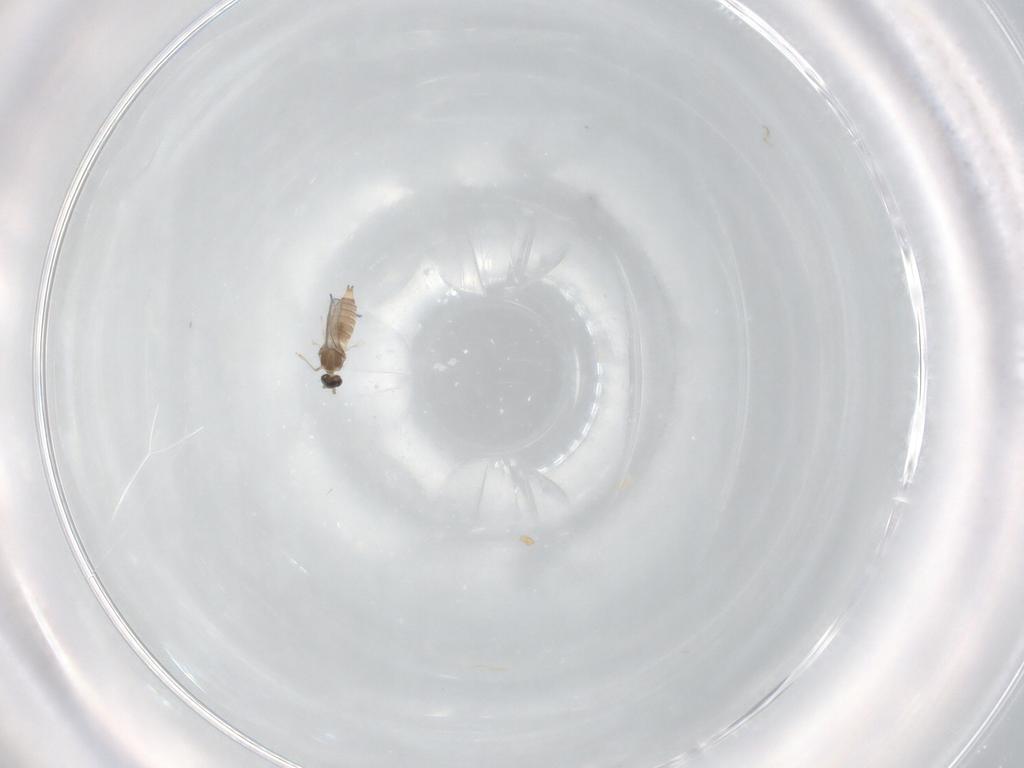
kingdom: Animalia
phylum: Arthropoda
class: Insecta
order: Diptera
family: Cecidomyiidae
